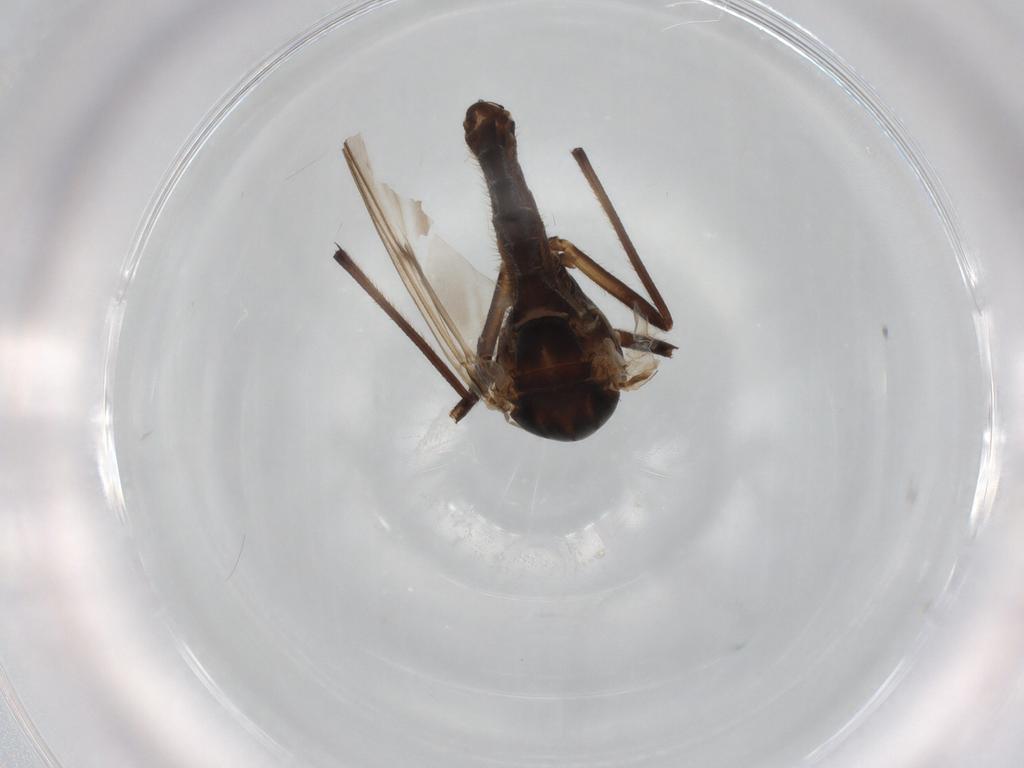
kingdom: Animalia
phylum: Arthropoda
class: Insecta
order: Diptera
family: Chironomidae
